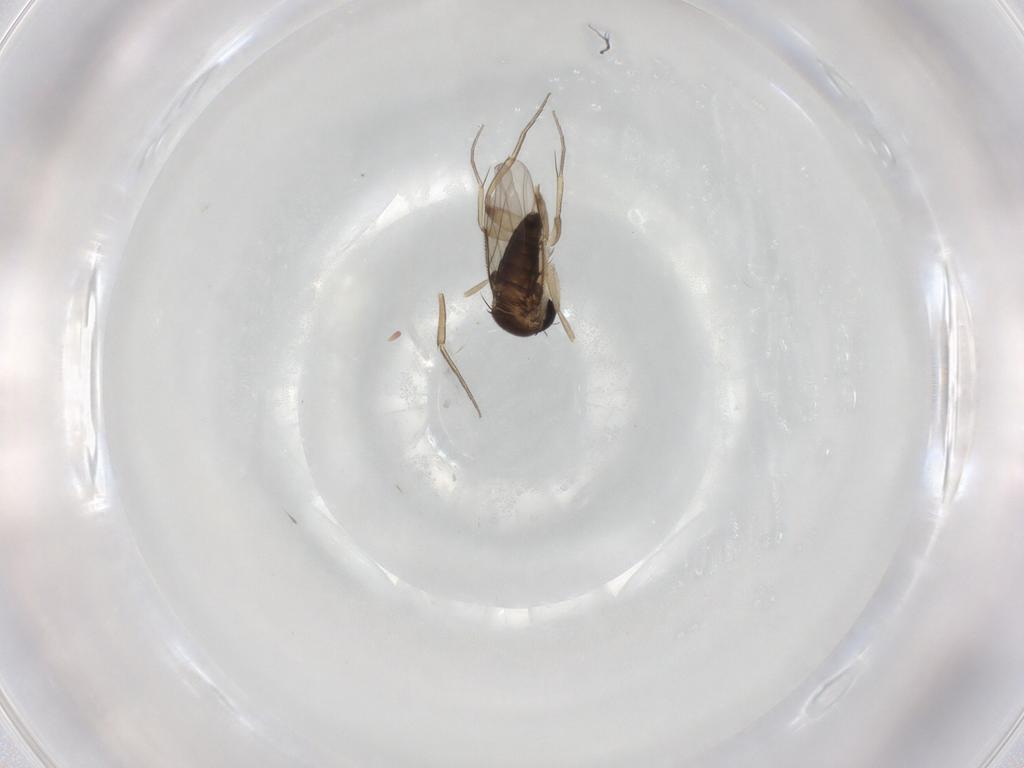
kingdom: Animalia
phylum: Arthropoda
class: Insecta
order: Diptera
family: Phoridae
